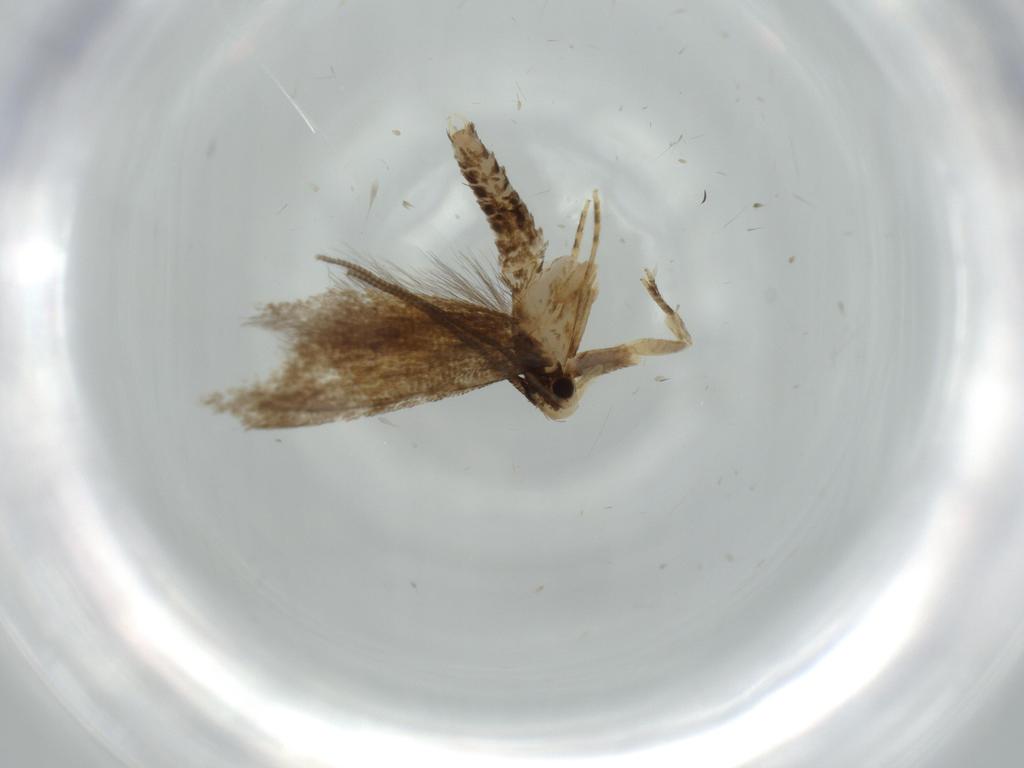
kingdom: Animalia
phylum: Arthropoda
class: Insecta
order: Lepidoptera
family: Tineidae
